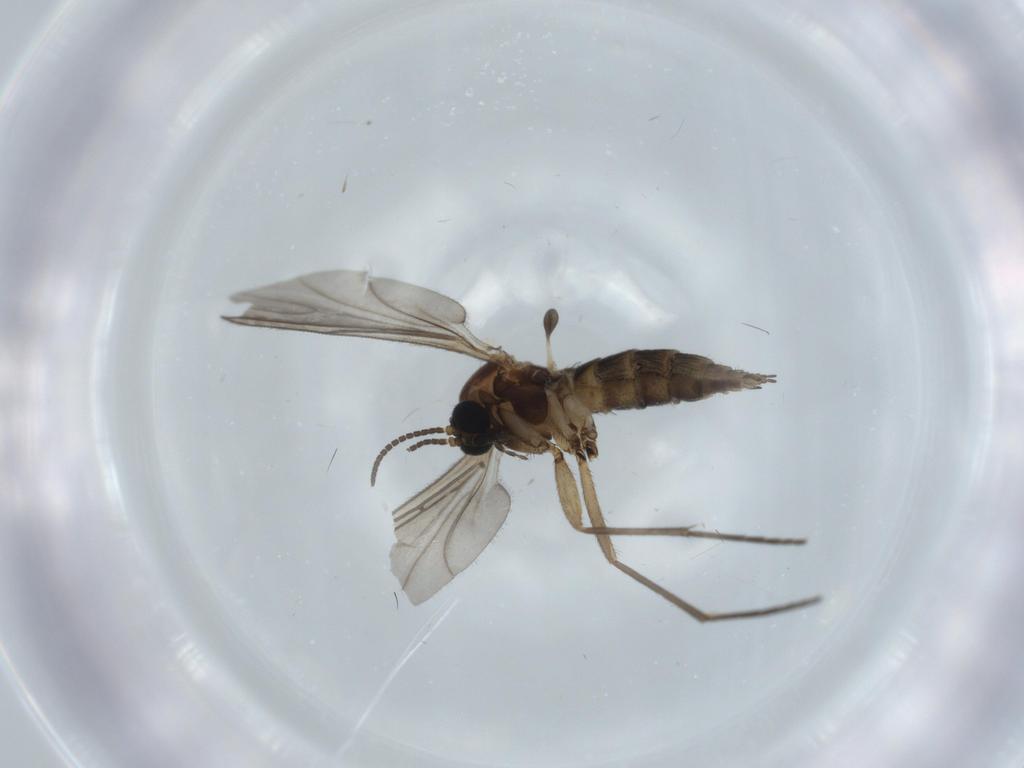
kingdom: Animalia
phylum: Arthropoda
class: Insecta
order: Diptera
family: Sciaridae
